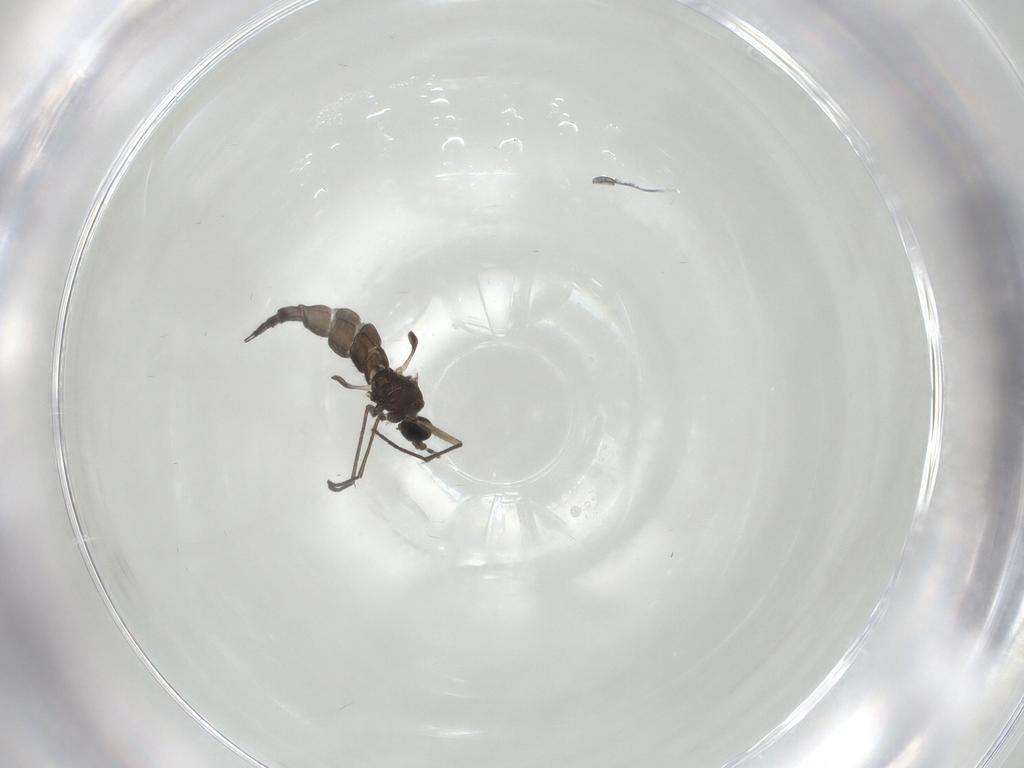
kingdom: Animalia
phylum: Arthropoda
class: Insecta
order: Diptera
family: Sciaridae
